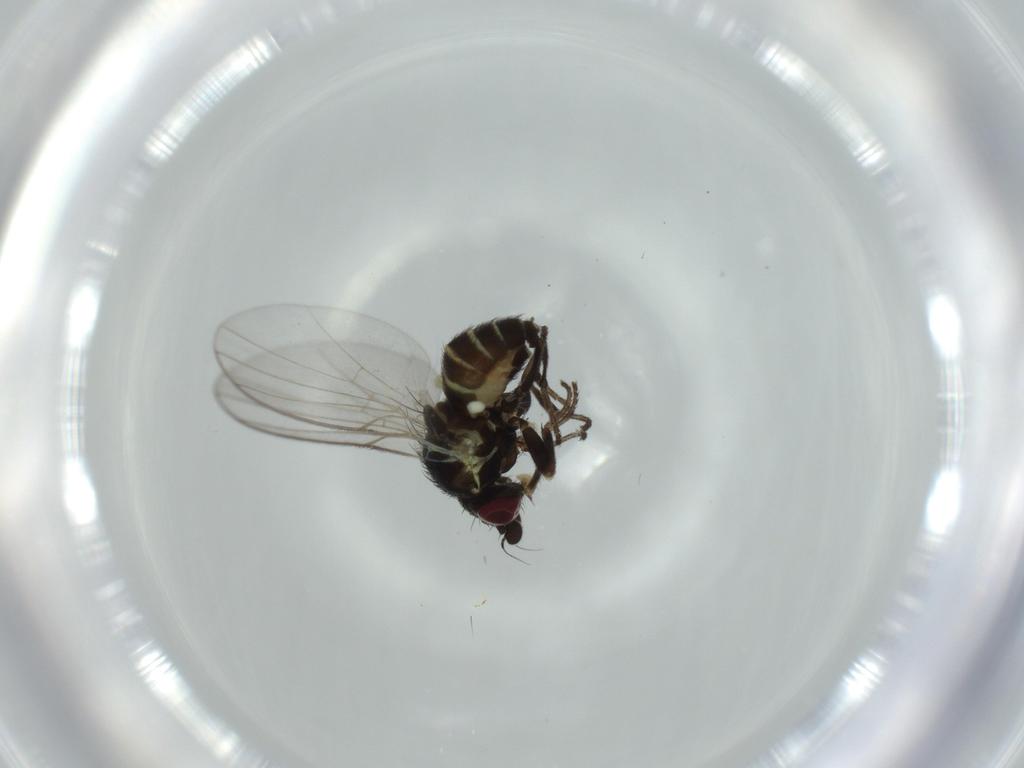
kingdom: Animalia
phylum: Arthropoda
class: Insecta
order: Diptera
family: Agromyzidae
